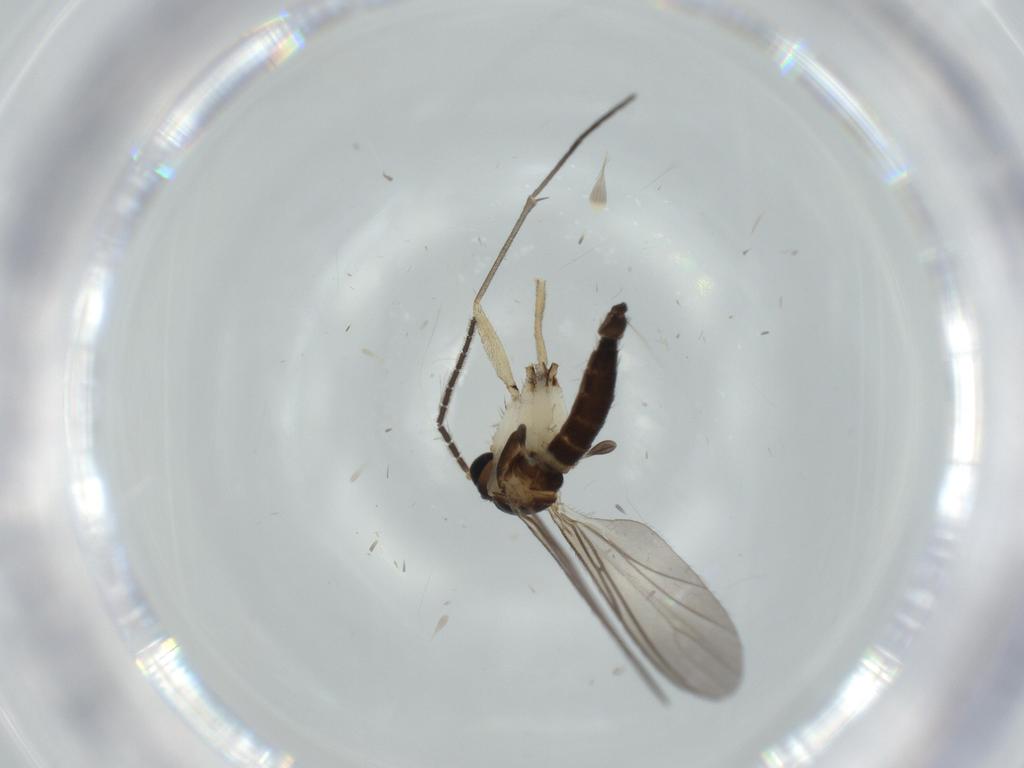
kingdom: Animalia
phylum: Arthropoda
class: Insecta
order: Diptera
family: Sciaridae
